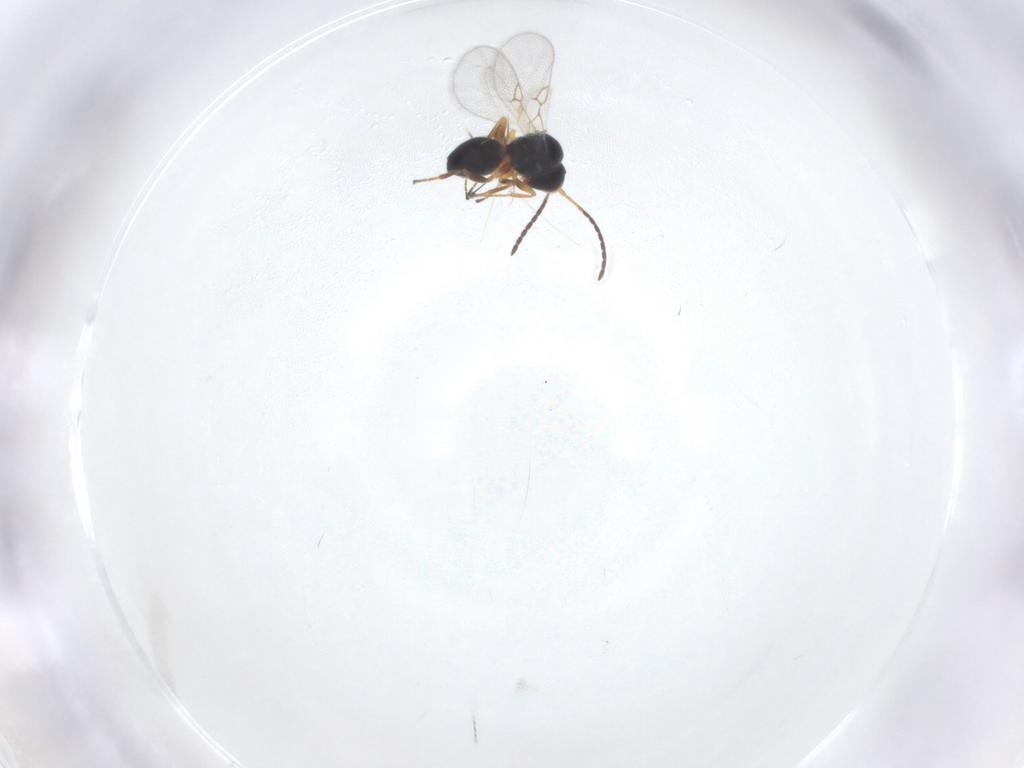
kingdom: Animalia
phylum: Arthropoda
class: Insecta
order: Hymenoptera
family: Figitidae
